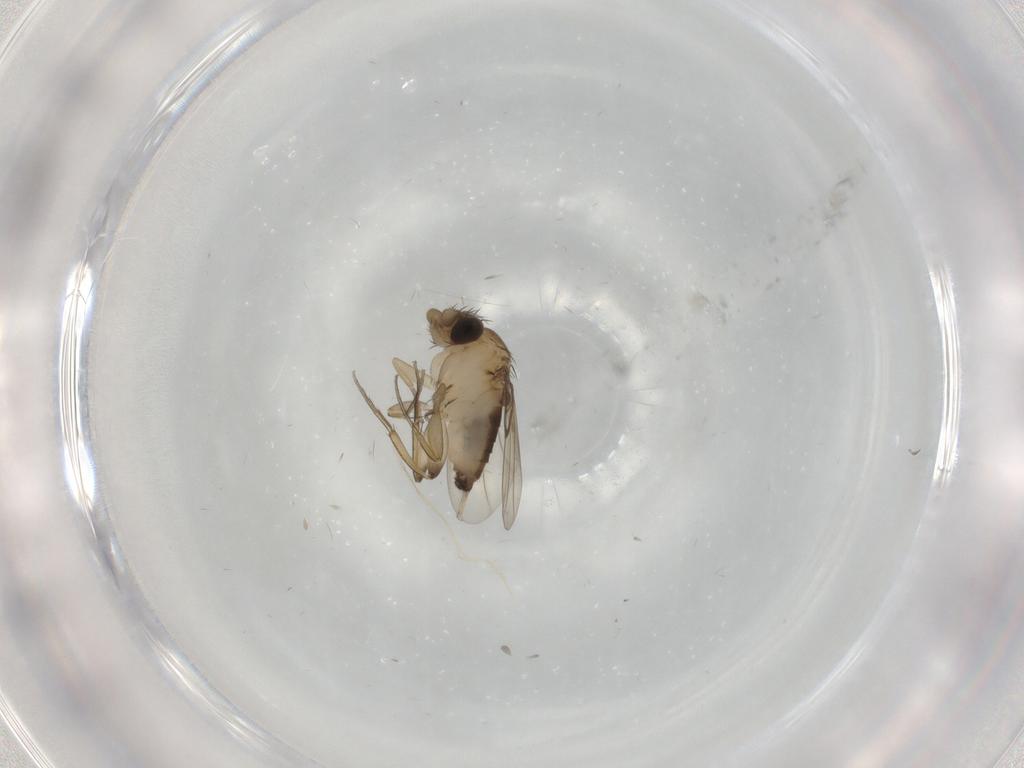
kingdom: Animalia
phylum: Arthropoda
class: Insecta
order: Diptera
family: Phoridae
